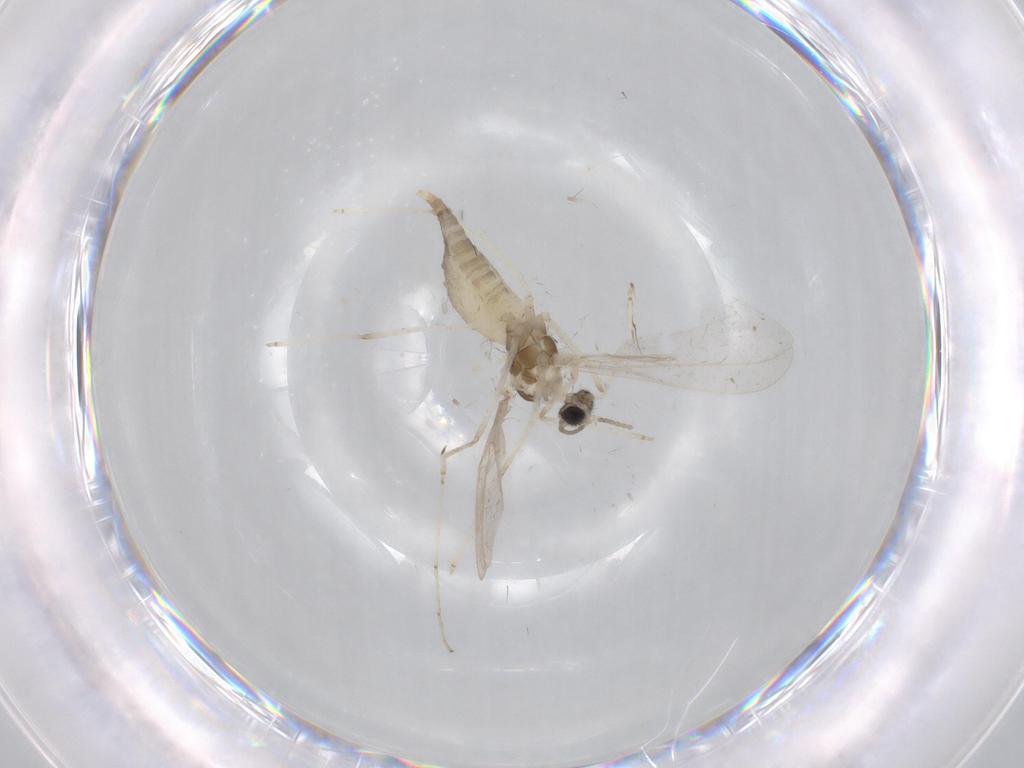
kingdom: Animalia
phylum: Arthropoda
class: Insecta
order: Diptera
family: Cecidomyiidae
